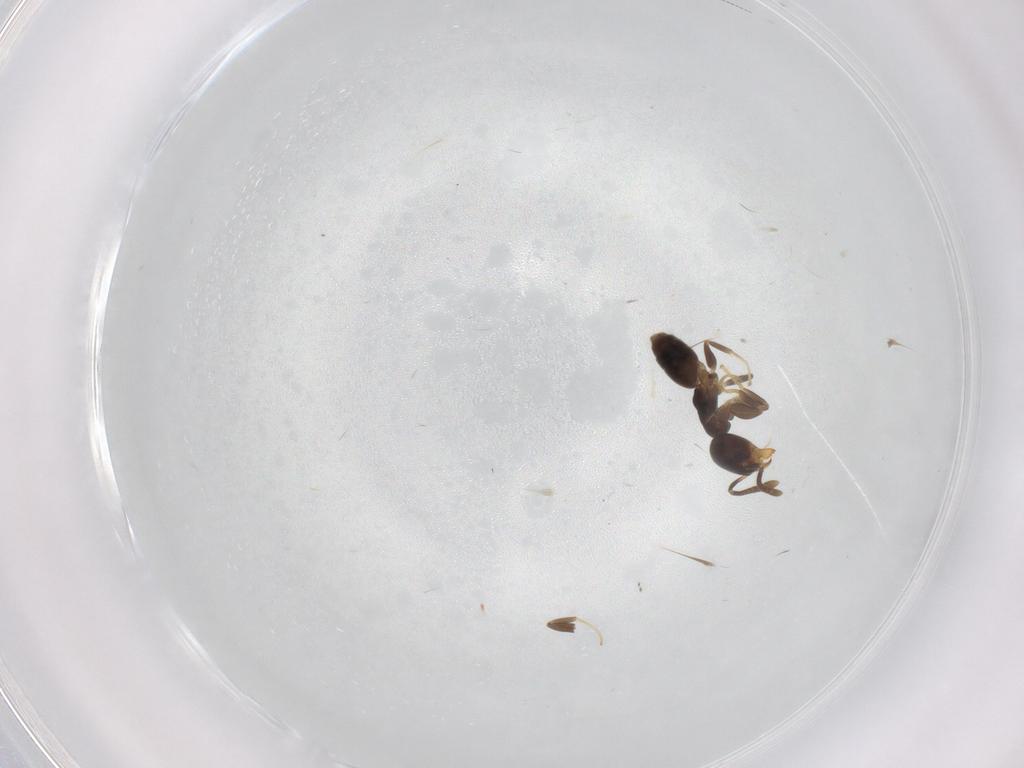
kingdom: Animalia
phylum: Arthropoda
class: Insecta
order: Hymenoptera
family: Formicidae
